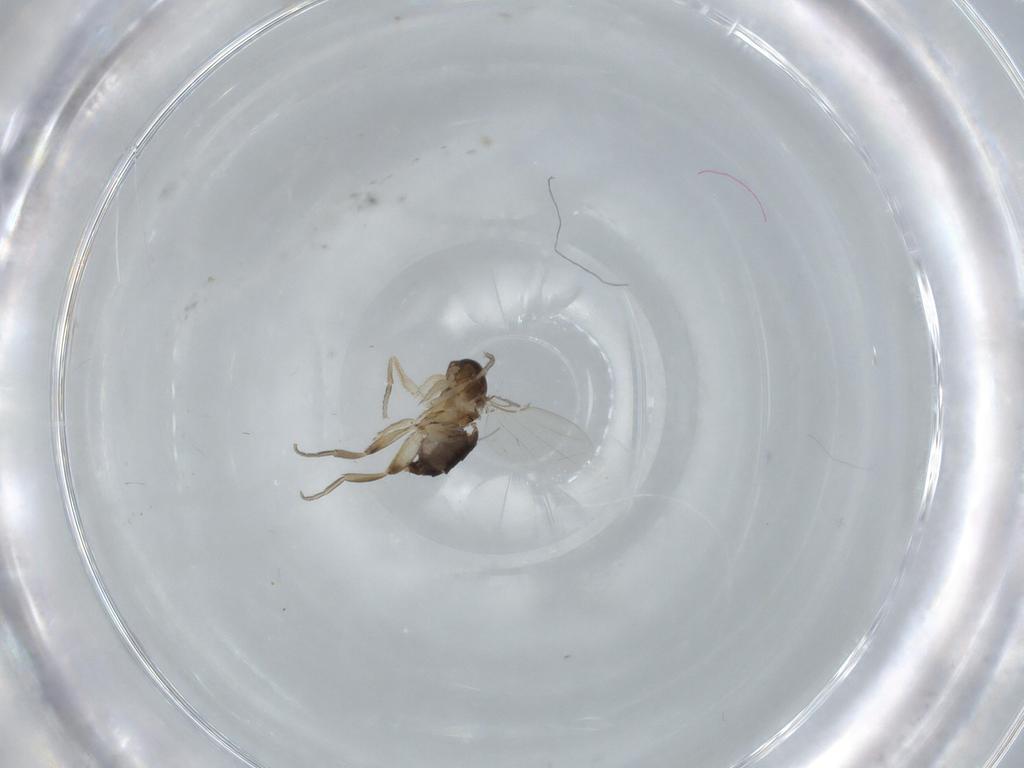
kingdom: Animalia
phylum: Arthropoda
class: Insecta
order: Diptera
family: Phoridae
